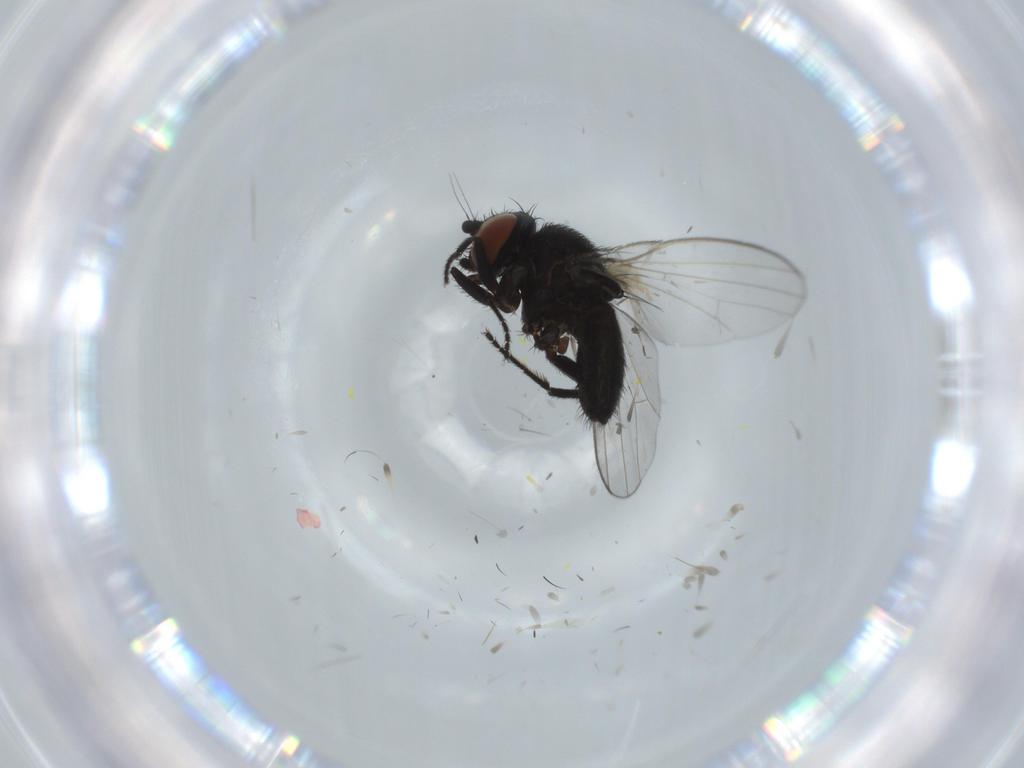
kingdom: Animalia
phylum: Arthropoda
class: Insecta
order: Diptera
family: Milichiidae
